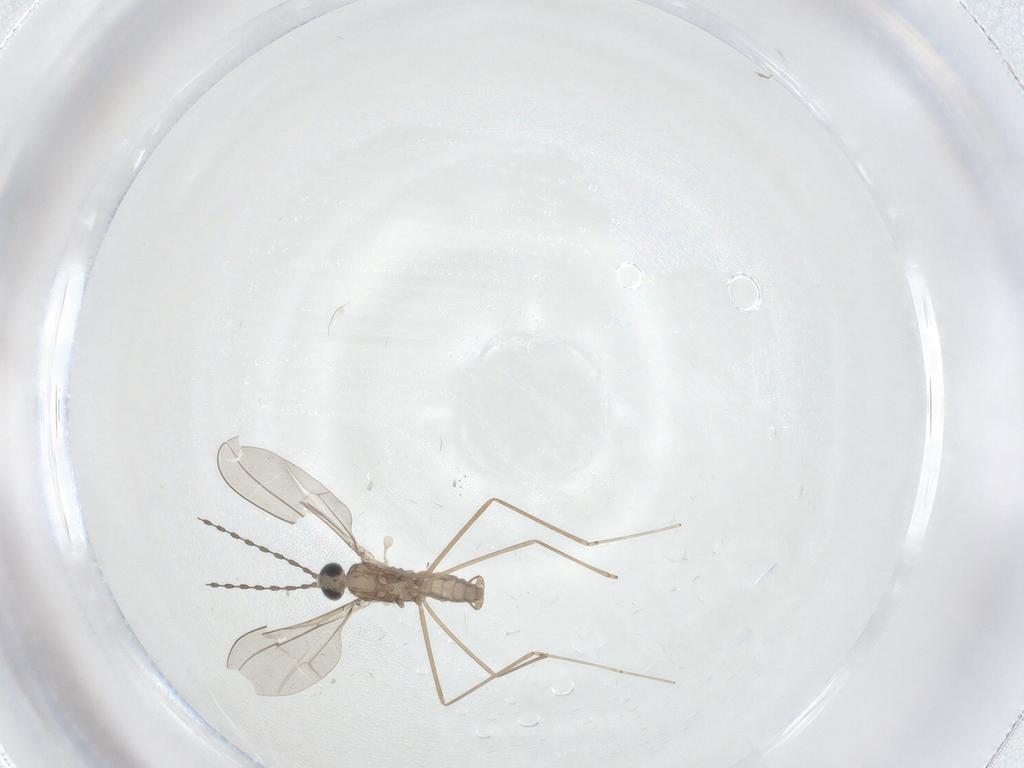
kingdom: Animalia
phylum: Arthropoda
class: Insecta
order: Diptera
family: Cecidomyiidae
